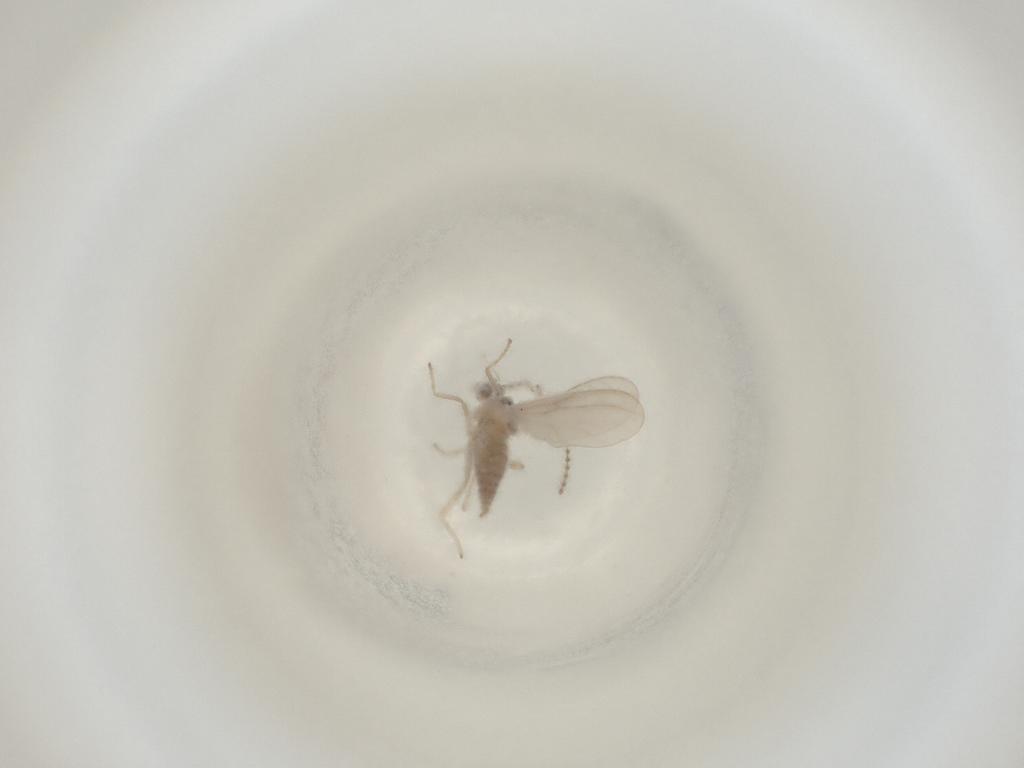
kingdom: Animalia
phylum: Arthropoda
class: Insecta
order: Diptera
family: Cecidomyiidae
